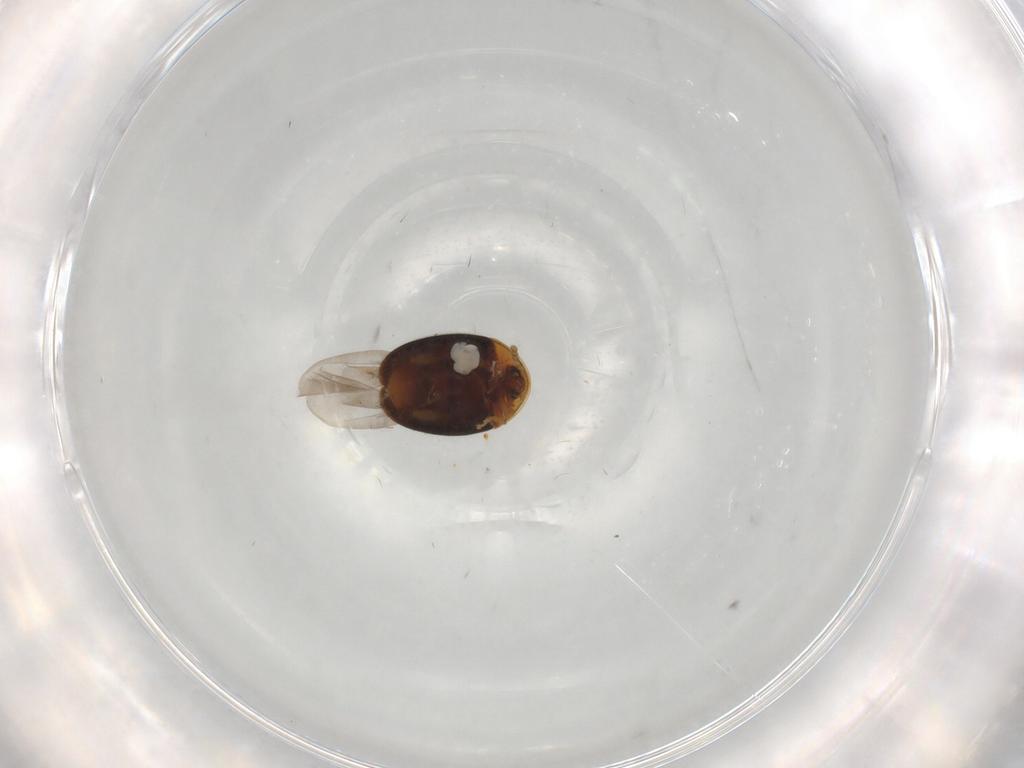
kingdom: Animalia
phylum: Arthropoda
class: Insecta
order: Coleoptera
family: Corylophidae
